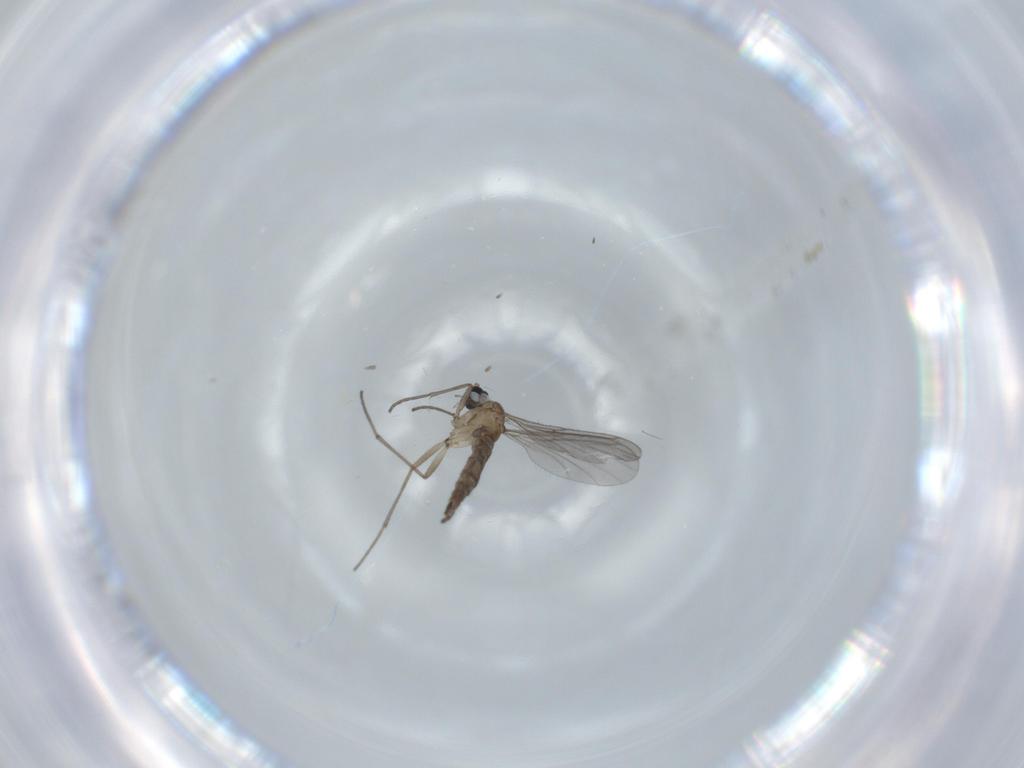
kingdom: Animalia
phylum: Arthropoda
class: Insecta
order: Diptera
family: Sciaridae
